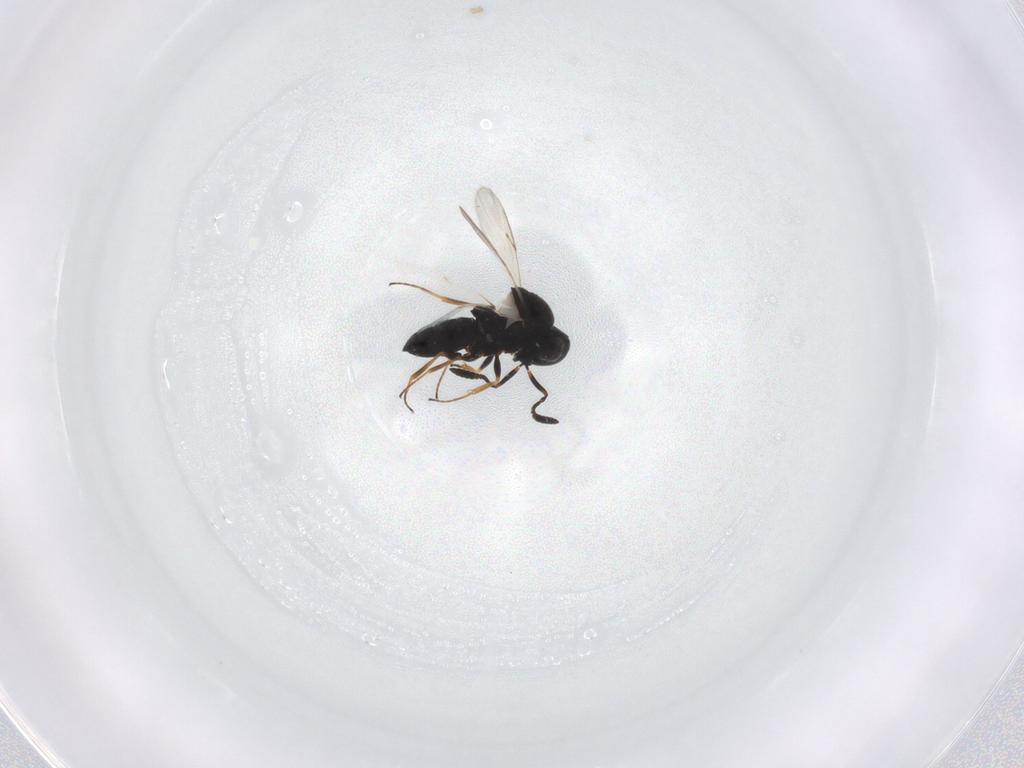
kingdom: Animalia
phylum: Arthropoda
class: Insecta
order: Hymenoptera
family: Scelionidae
